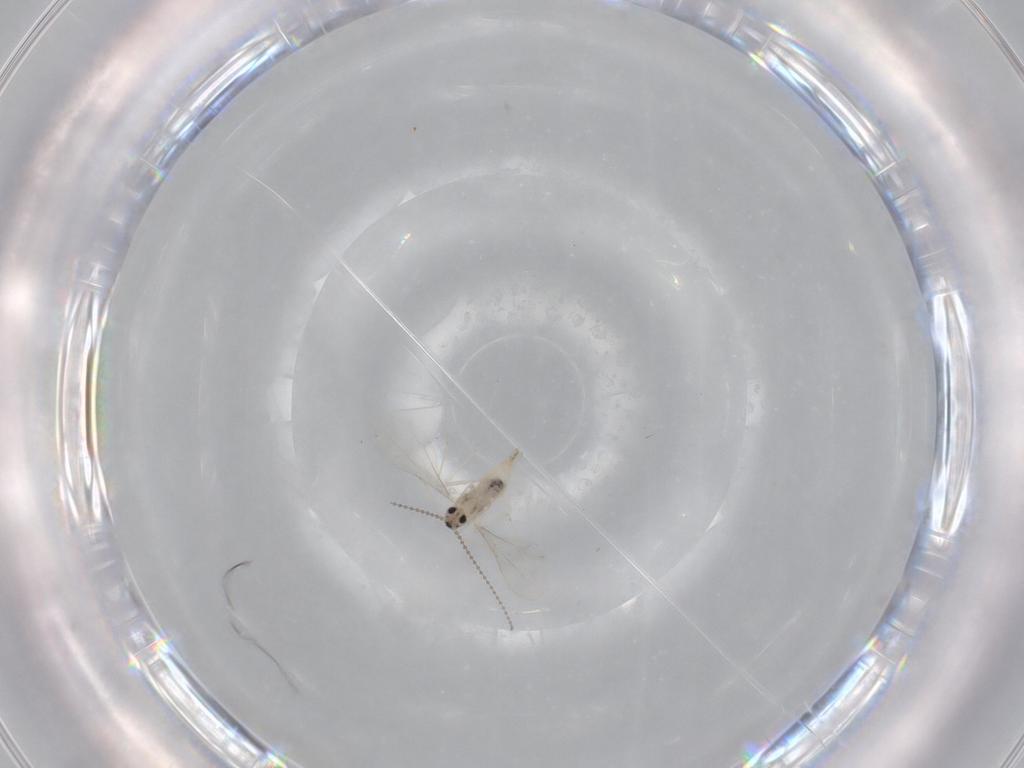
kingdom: Animalia
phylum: Arthropoda
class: Insecta
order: Diptera
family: Ceratopogonidae
